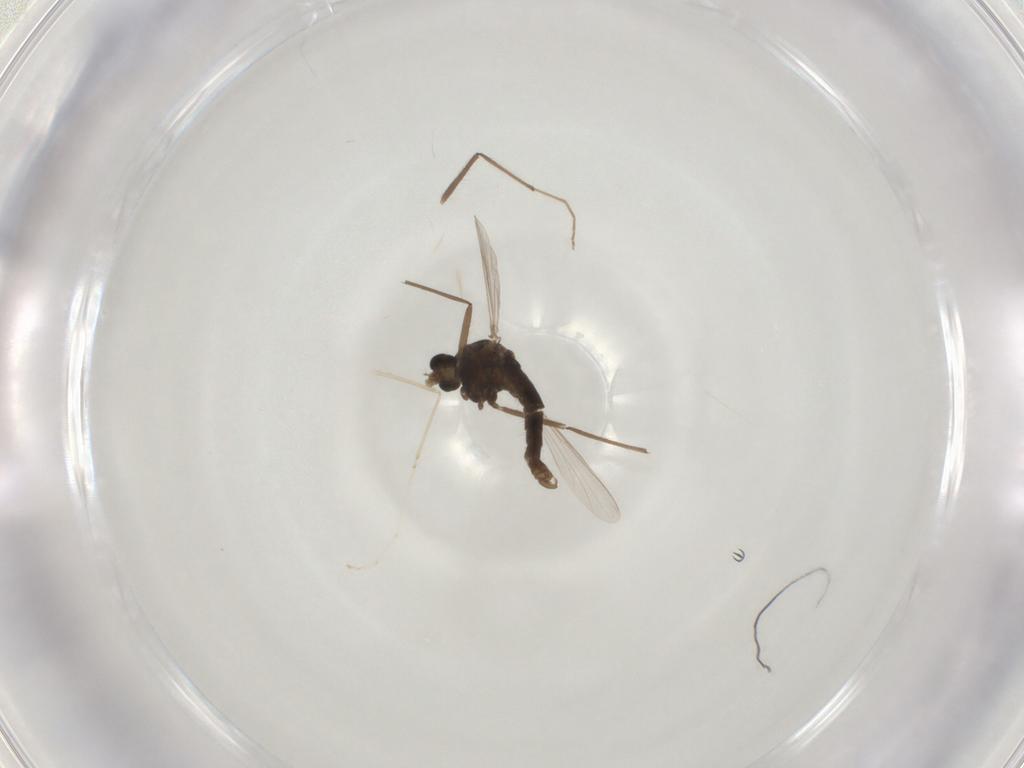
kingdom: Animalia
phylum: Arthropoda
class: Insecta
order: Diptera
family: Chironomidae
